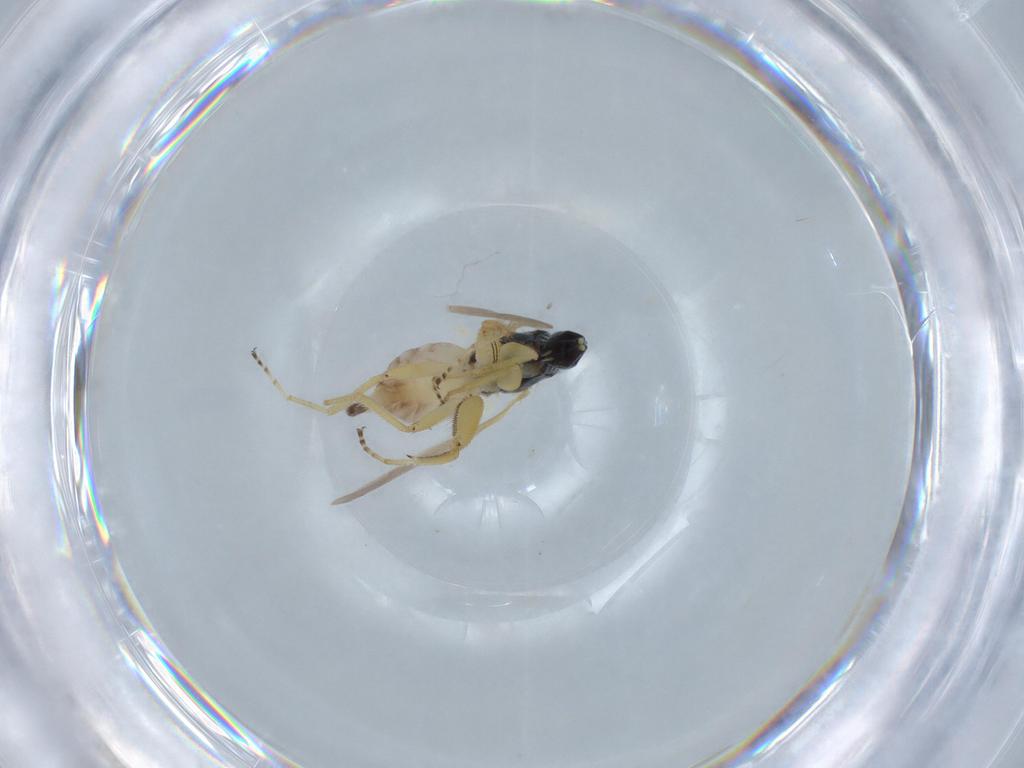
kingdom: Animalia
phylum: Arthropoda
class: Insecta
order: Diptera
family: Hybotidae
